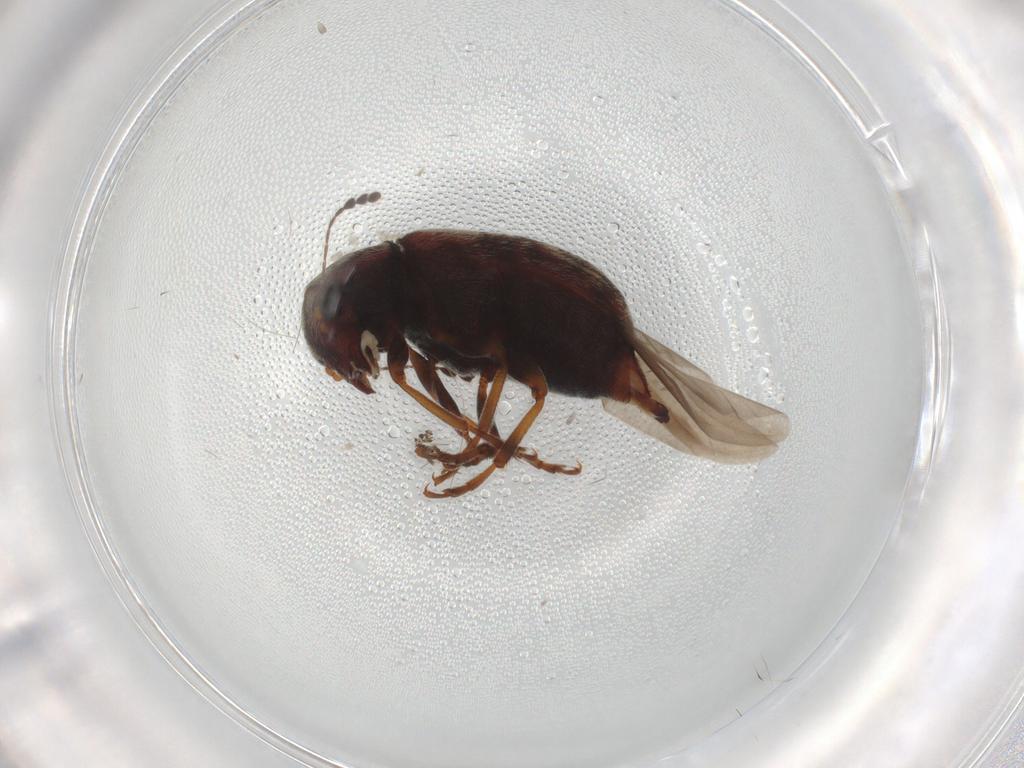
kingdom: Animalia
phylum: Arthropoda
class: Insecta
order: Coleoptera
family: Anthribidae
